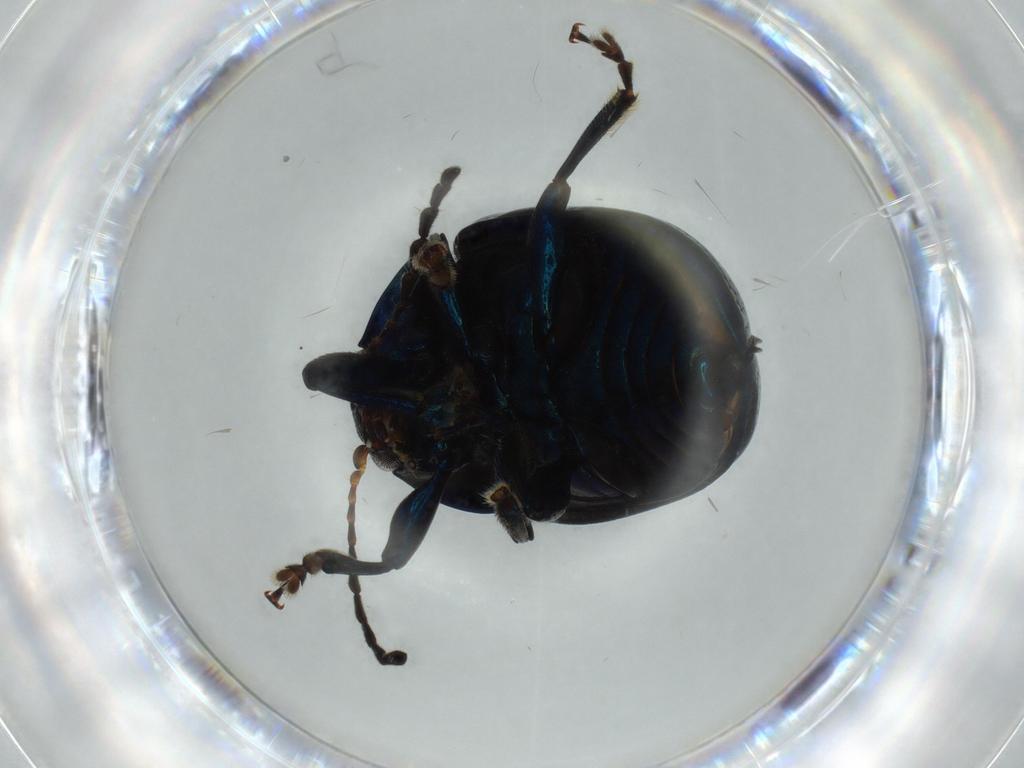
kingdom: Animalia
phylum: Arthropoda
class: Insecta
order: Coleoptera
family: Chrysomelidae
